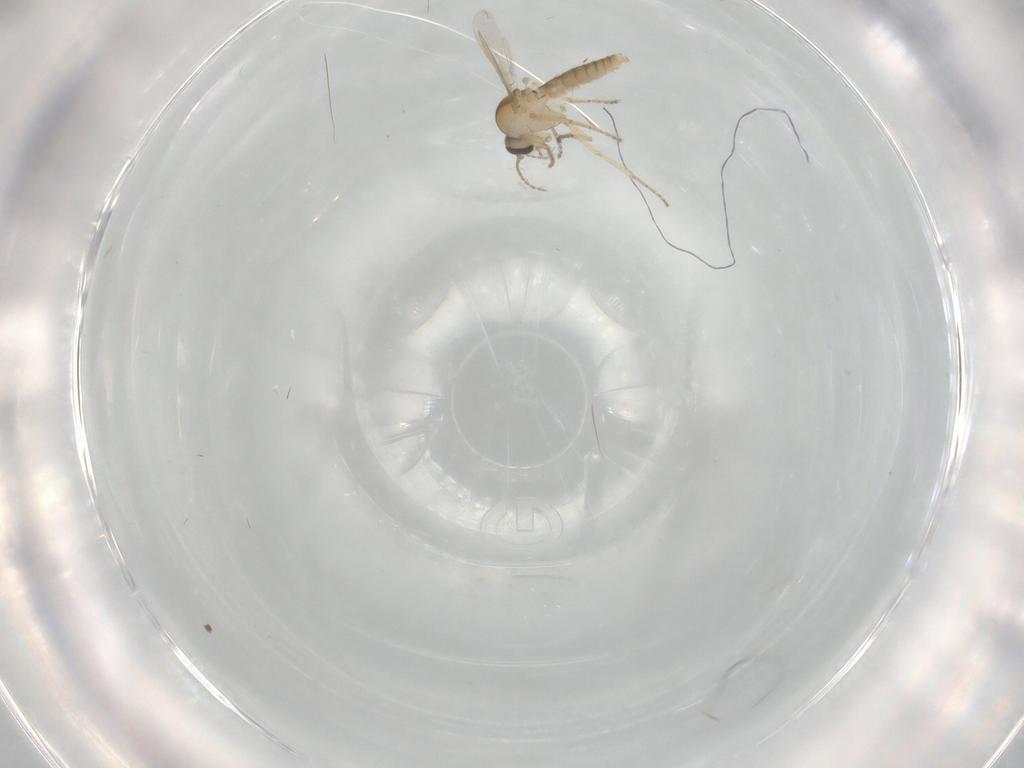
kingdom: Animalia
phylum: Arthropoda
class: Insecta
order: Diptera
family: Ceratopogonidae
